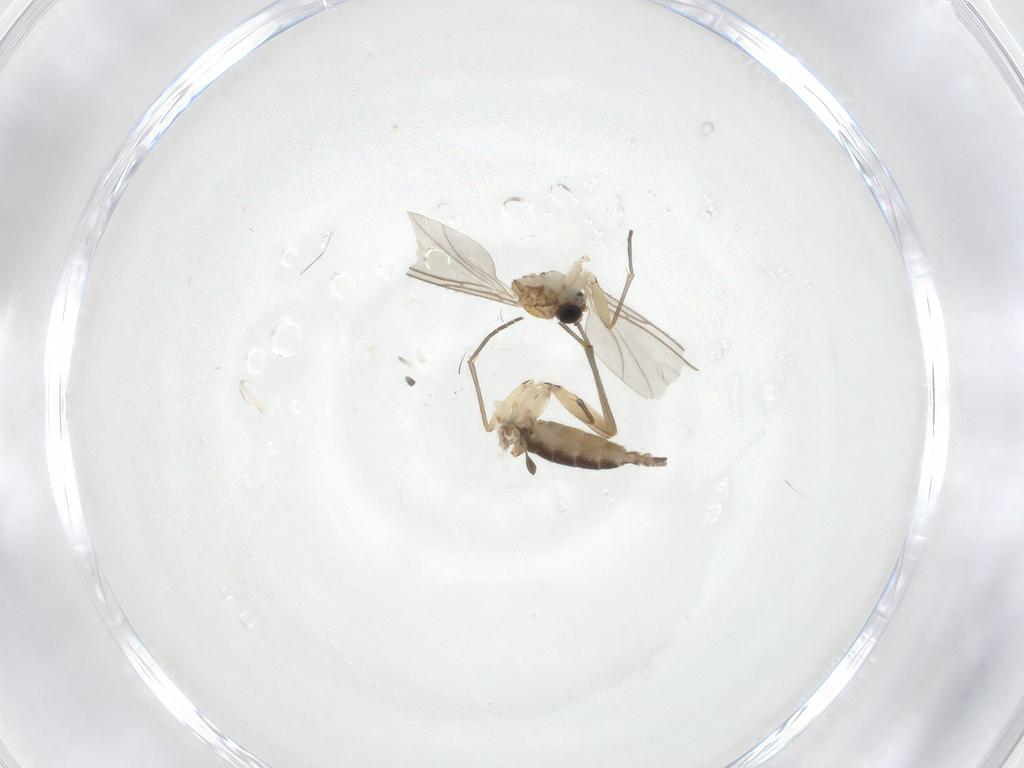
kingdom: Animalia
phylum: Arthropoda
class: Insecta
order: Diptera
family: Sciaridae
